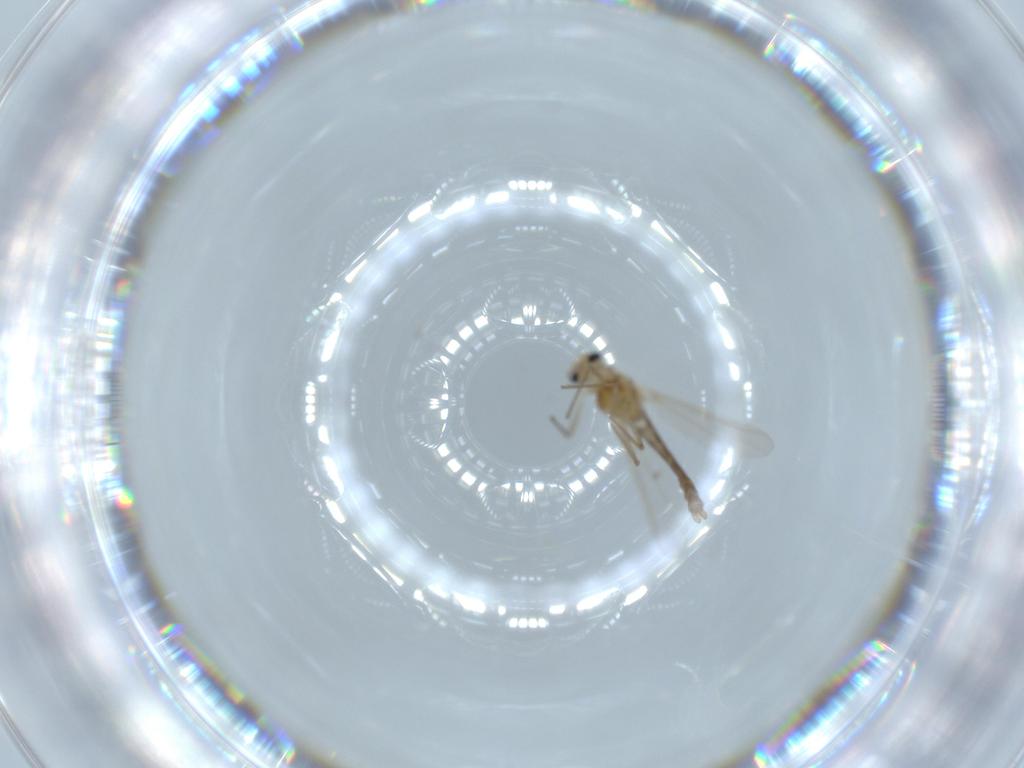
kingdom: Animalia
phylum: Arthropoda
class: Insecta
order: Diptera
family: Chironomidae
